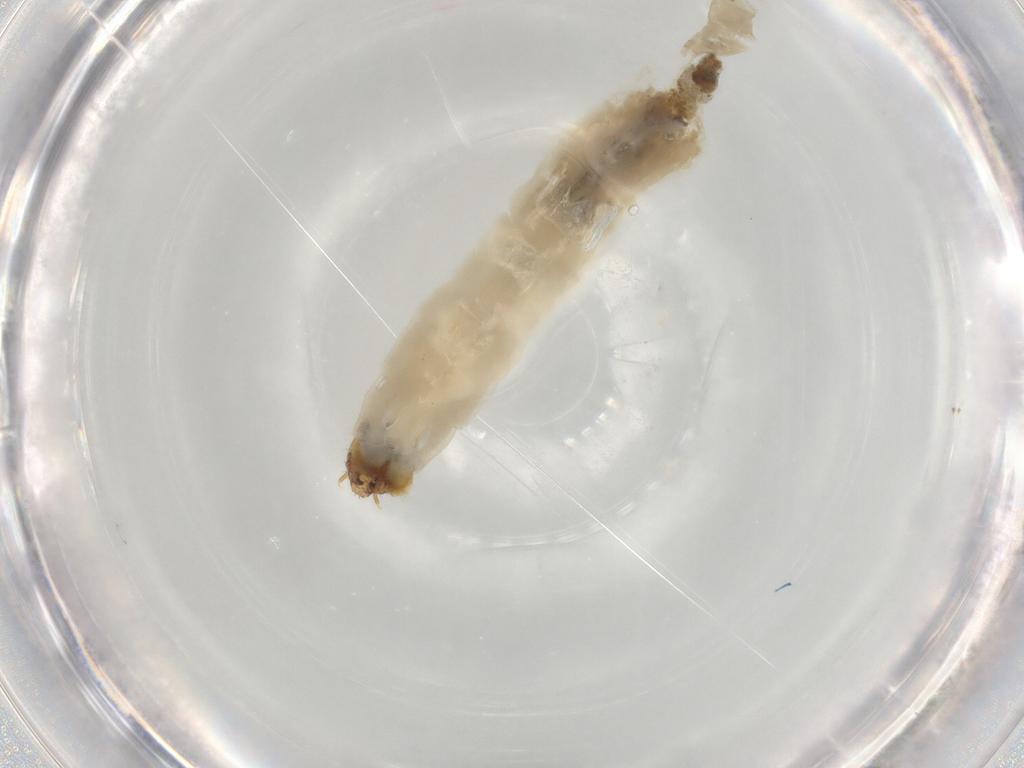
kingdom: Animalia
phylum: Arthropoda
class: Insecta
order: Diptera
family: Chironomidae
